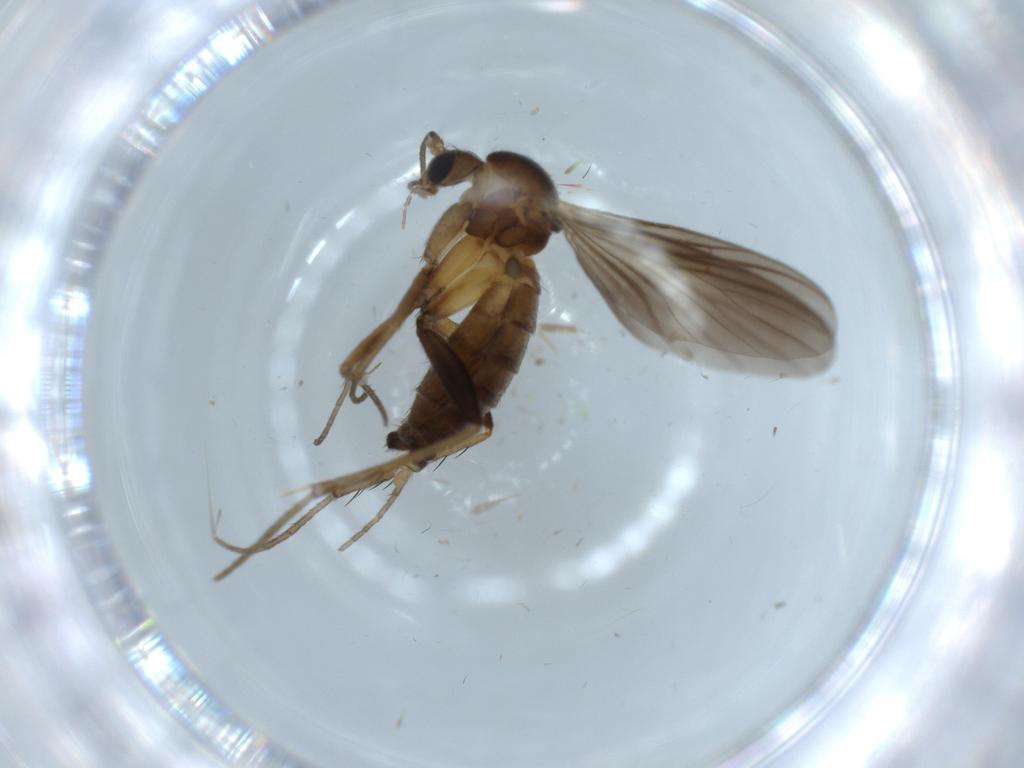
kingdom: Animalia
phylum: Arthropoda
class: Insecta
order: Diptera
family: Mycetophilidae
